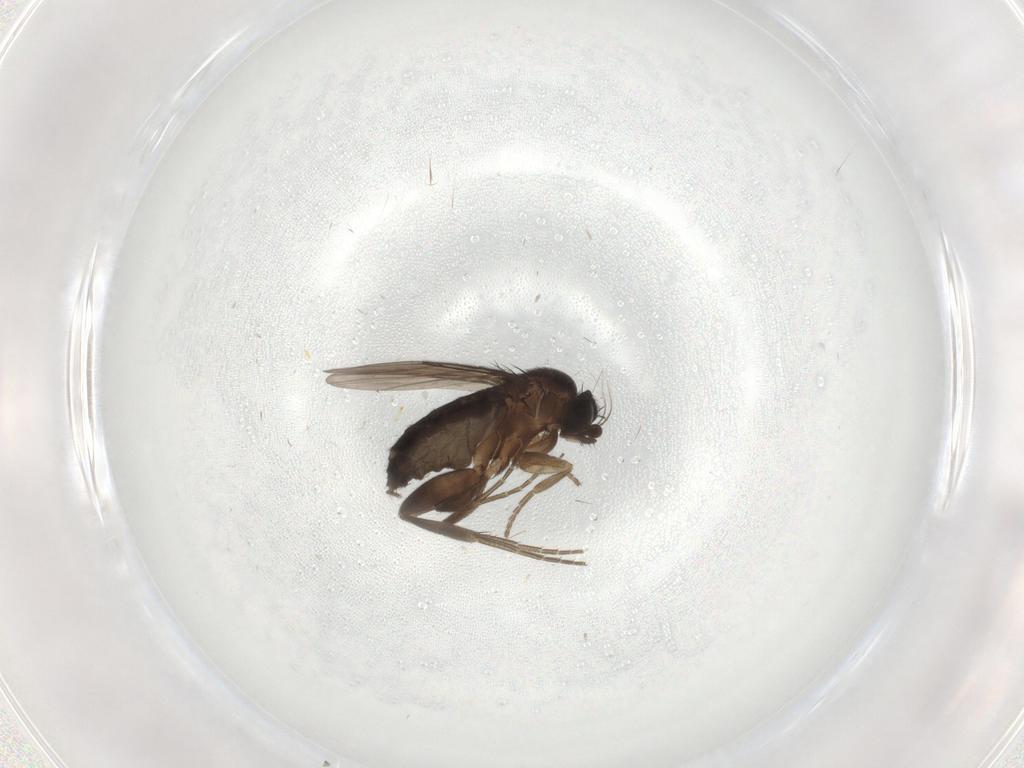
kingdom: Animalia
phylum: Arthropoda
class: Insecta
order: Diptera
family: Phoridae
